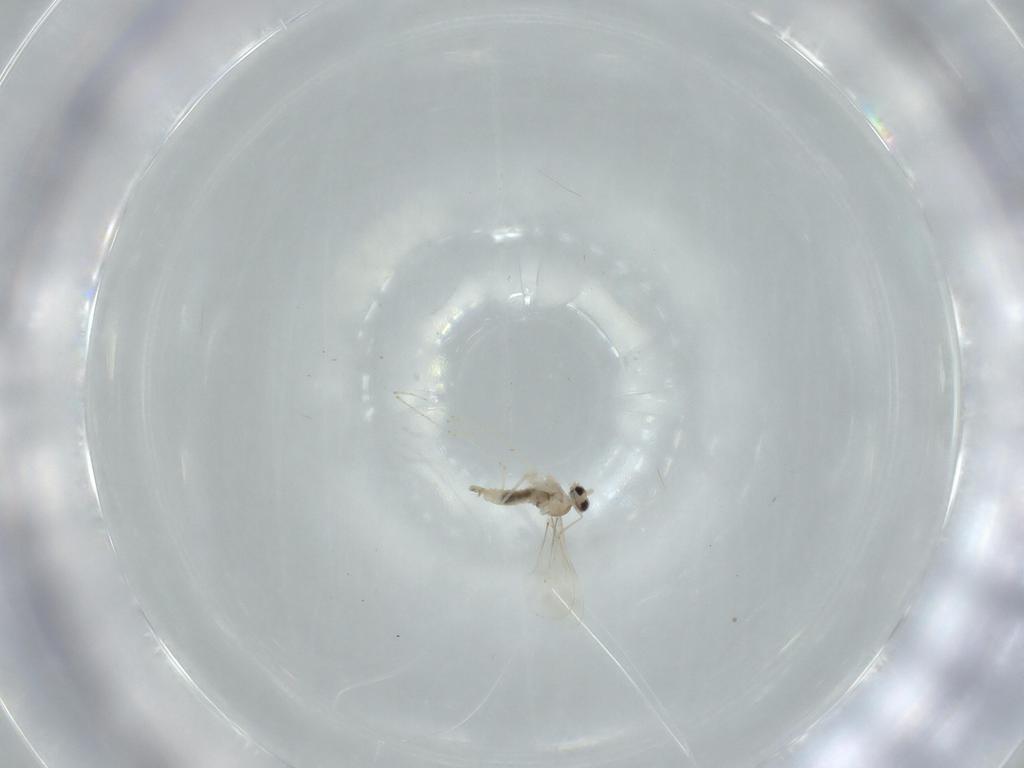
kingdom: Animalia
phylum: Arthropoda
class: Insecta
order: Diptera
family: Cecidomyiidae
